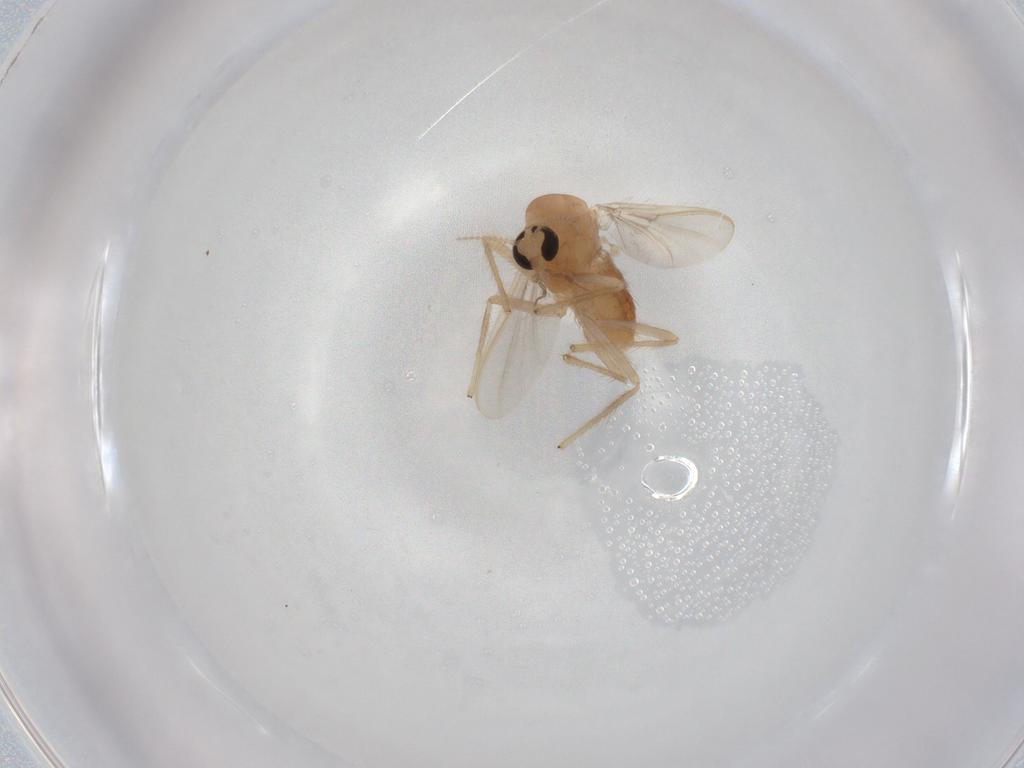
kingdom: Animalia
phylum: Arthropoda
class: Insecta
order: Diptera
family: Chironomidae
